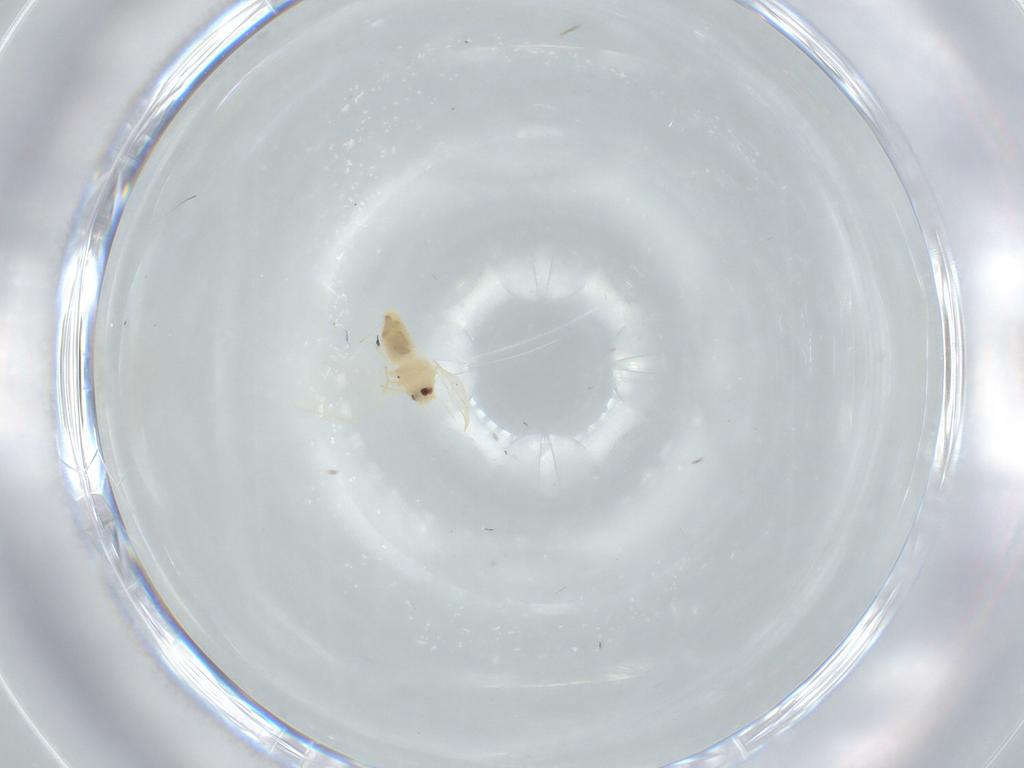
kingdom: Animalia
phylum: Arthropoda
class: Insecta
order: Hemiptera
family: Aleyrodidae
